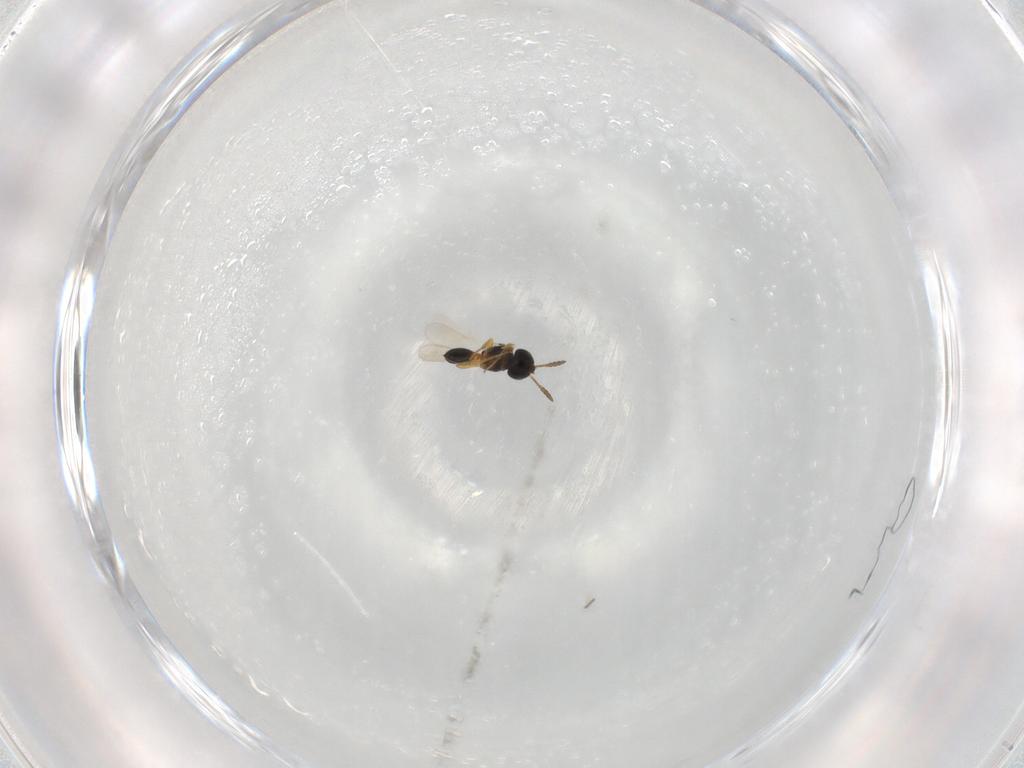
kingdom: Animalia
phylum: Arthropoda
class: Insecta
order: Hymenoptera
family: Scelionidae
